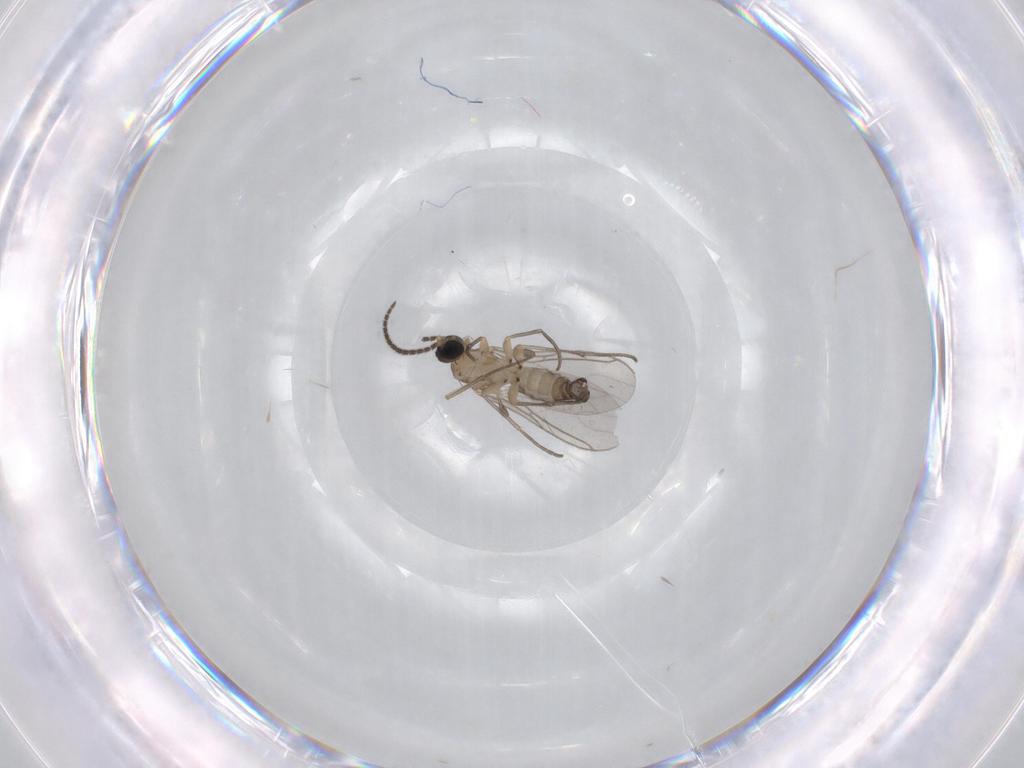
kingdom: Animalia
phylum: Arthropoda
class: Insecta
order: Diptera
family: Sciaridae
